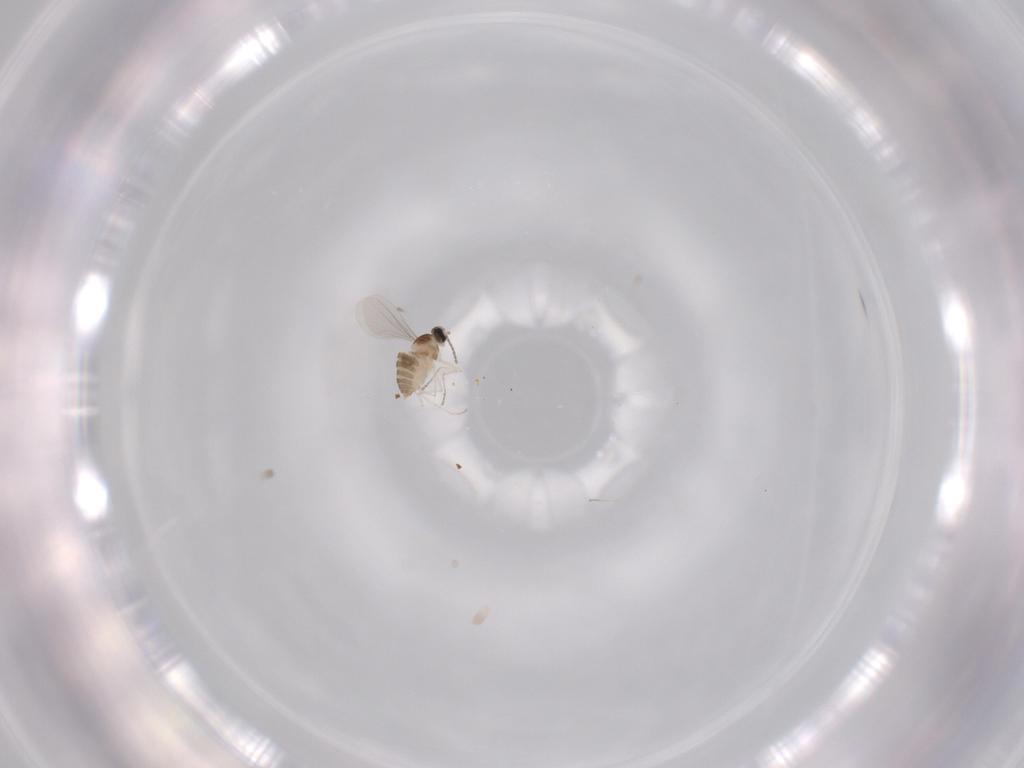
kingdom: Animalia
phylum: Arthropoda
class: Insecta
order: Diptera
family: Cecidomyiidae
